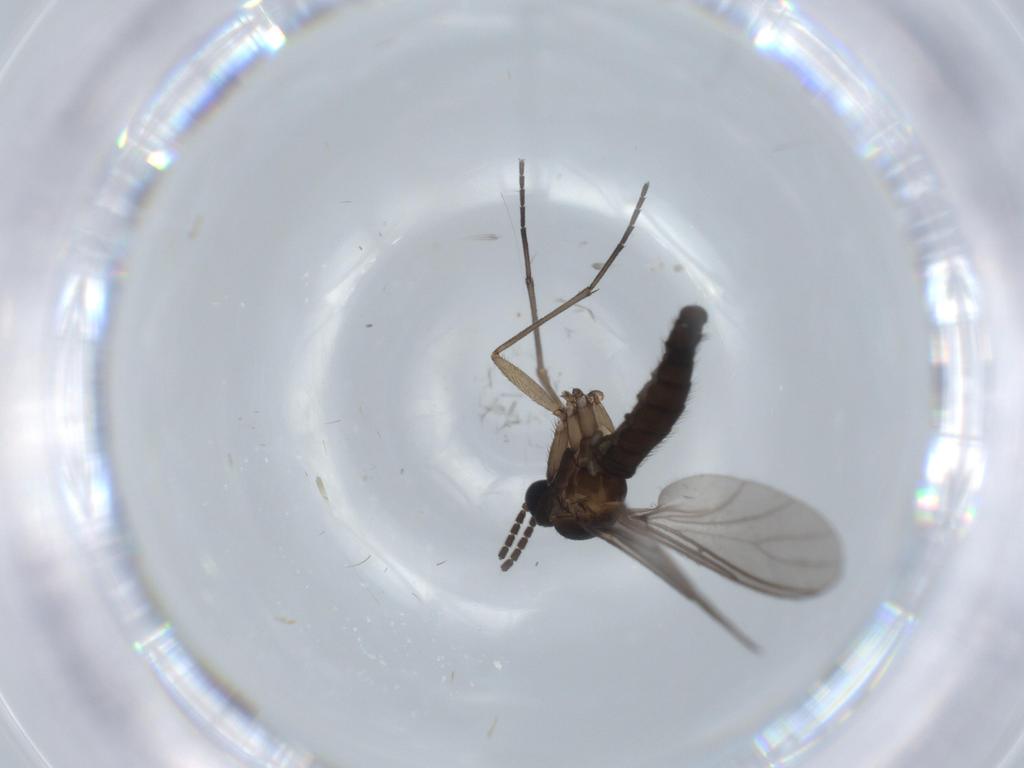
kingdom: Animalia
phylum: Arthropoda
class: Insecta
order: Diptera
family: Sciaridae
